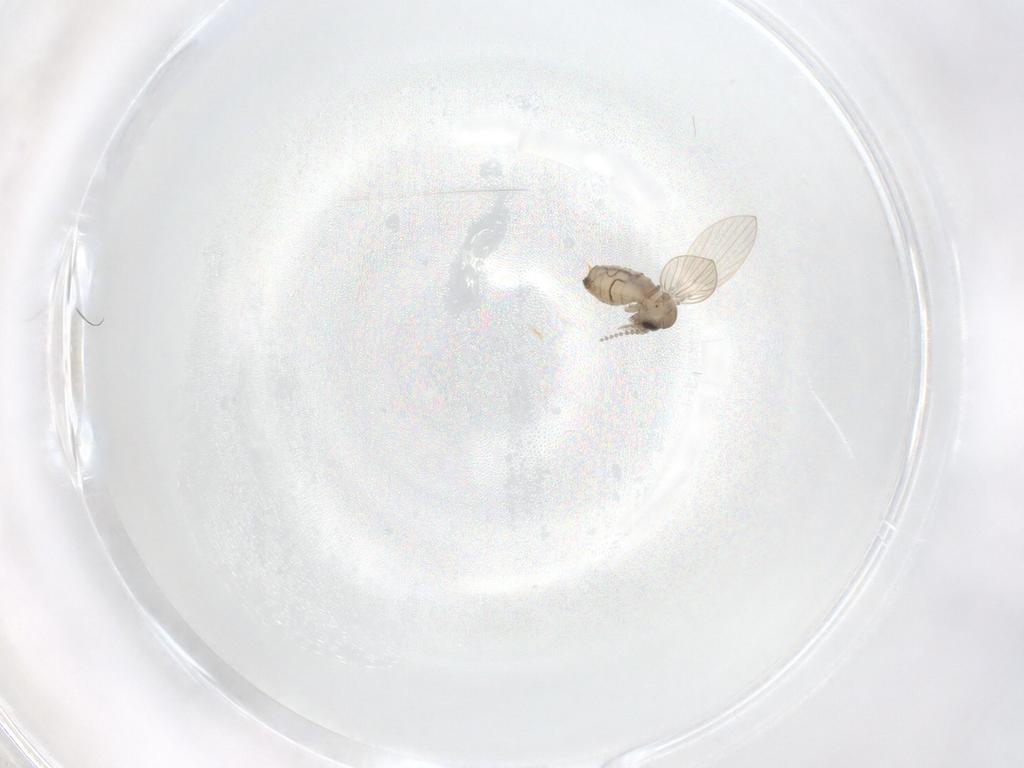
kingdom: Animalia
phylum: Arthropoda
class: Insecta
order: Diptera
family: Psychodidae
